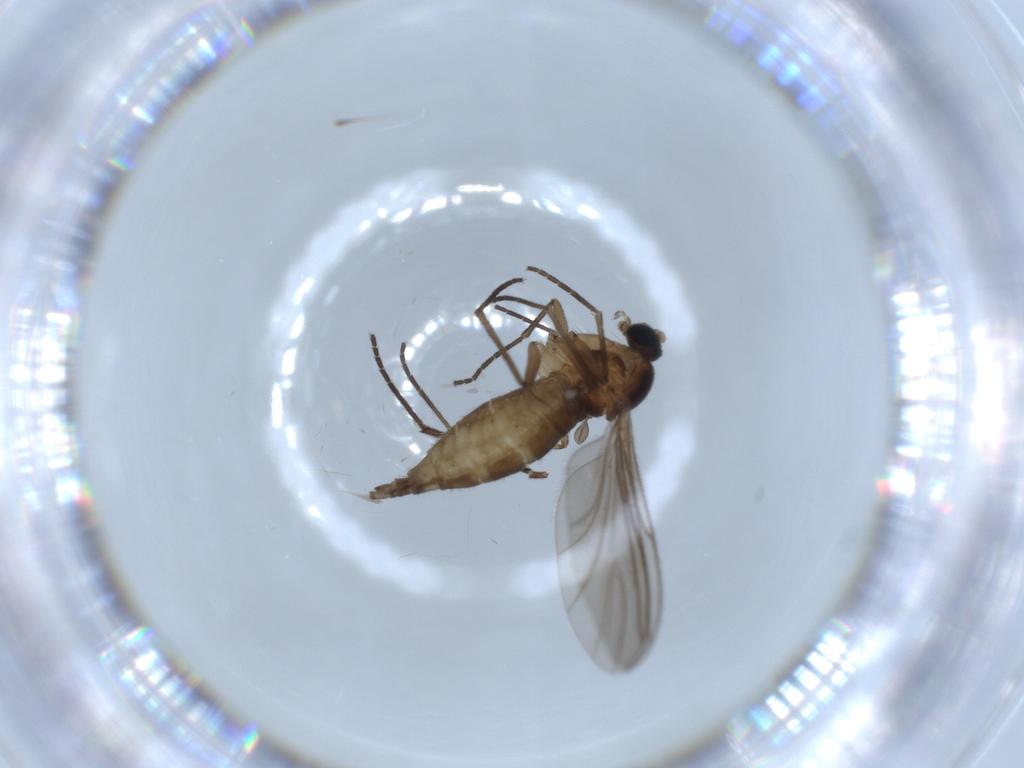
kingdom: Animalia
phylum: Arthropoda
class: Insecta
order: Diptera
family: Sciaridae
